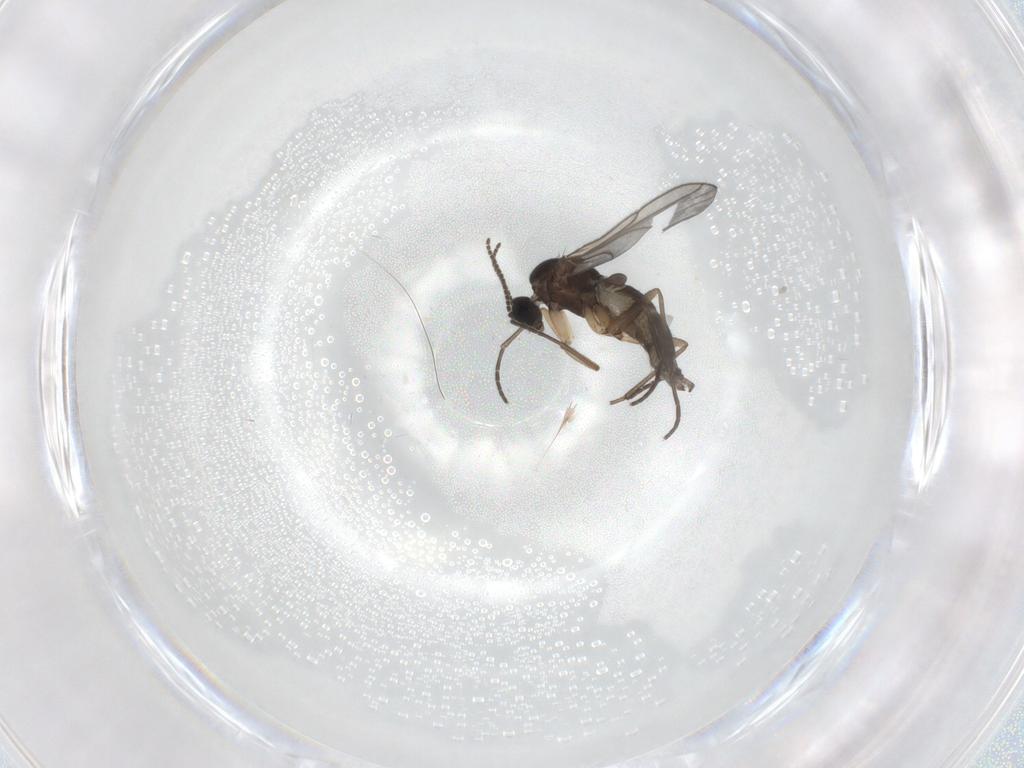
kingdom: Animalia
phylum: Arthropoda
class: Insecta
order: Diptera
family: Sciaridae
